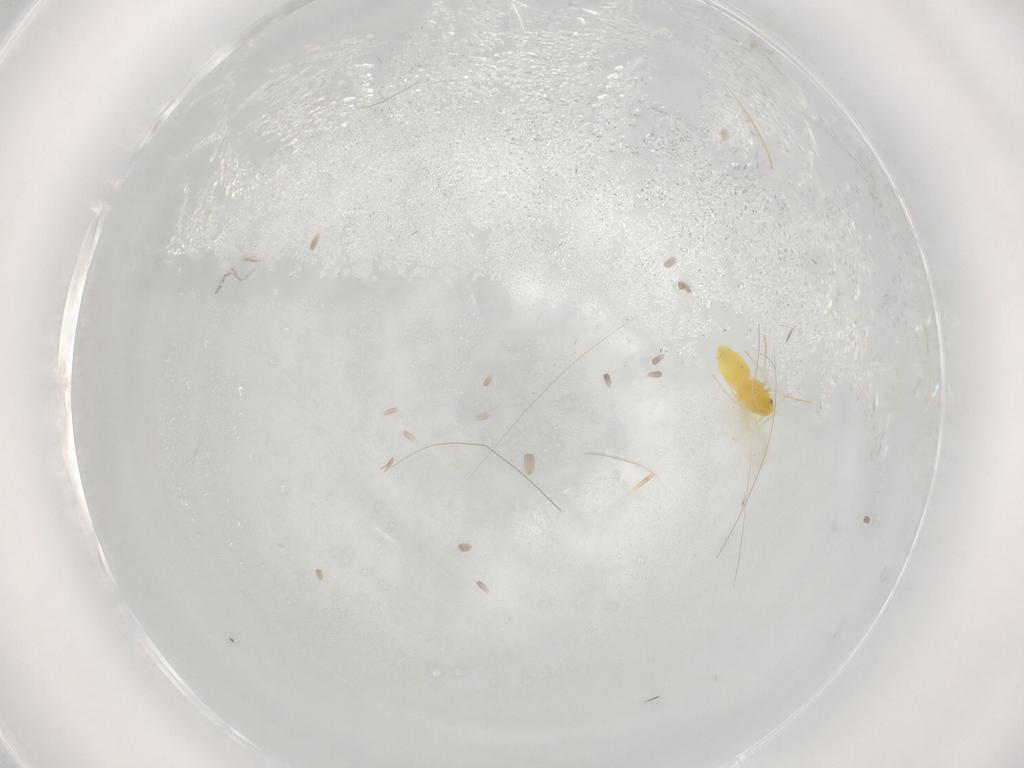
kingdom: Animalia
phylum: Arthropoda
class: Insecta
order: Hemiptera
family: Aleyrodidae
